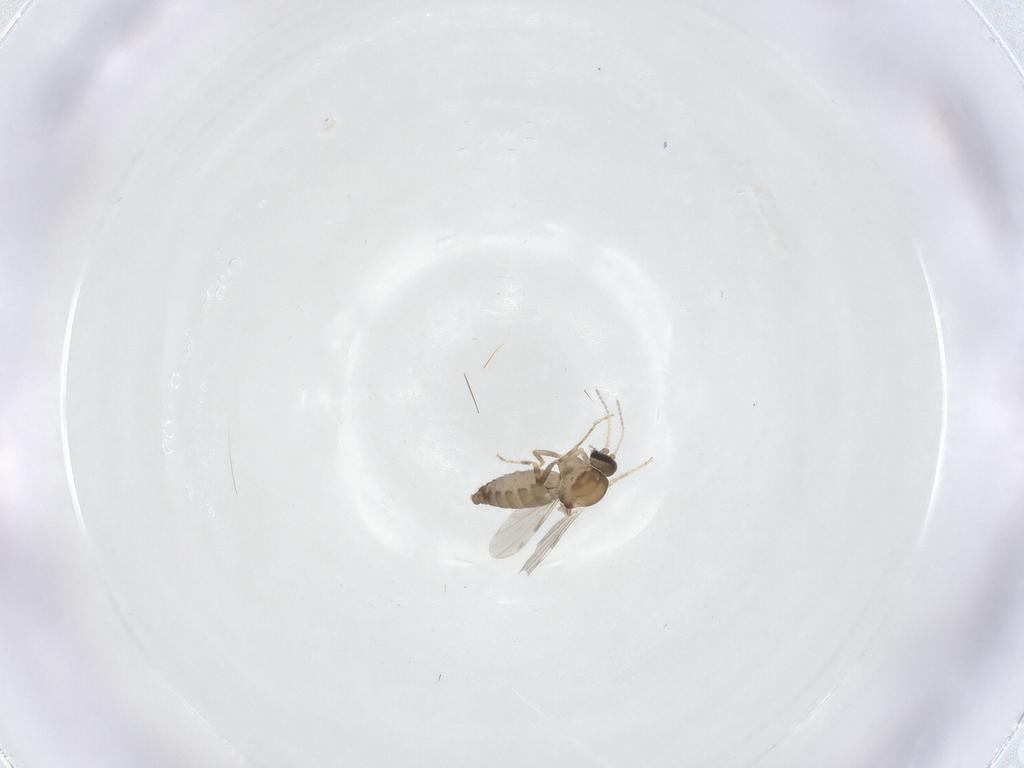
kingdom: Animalia
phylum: Arthropoda
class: Insecta
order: Diptera
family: Ceratopogonidae
